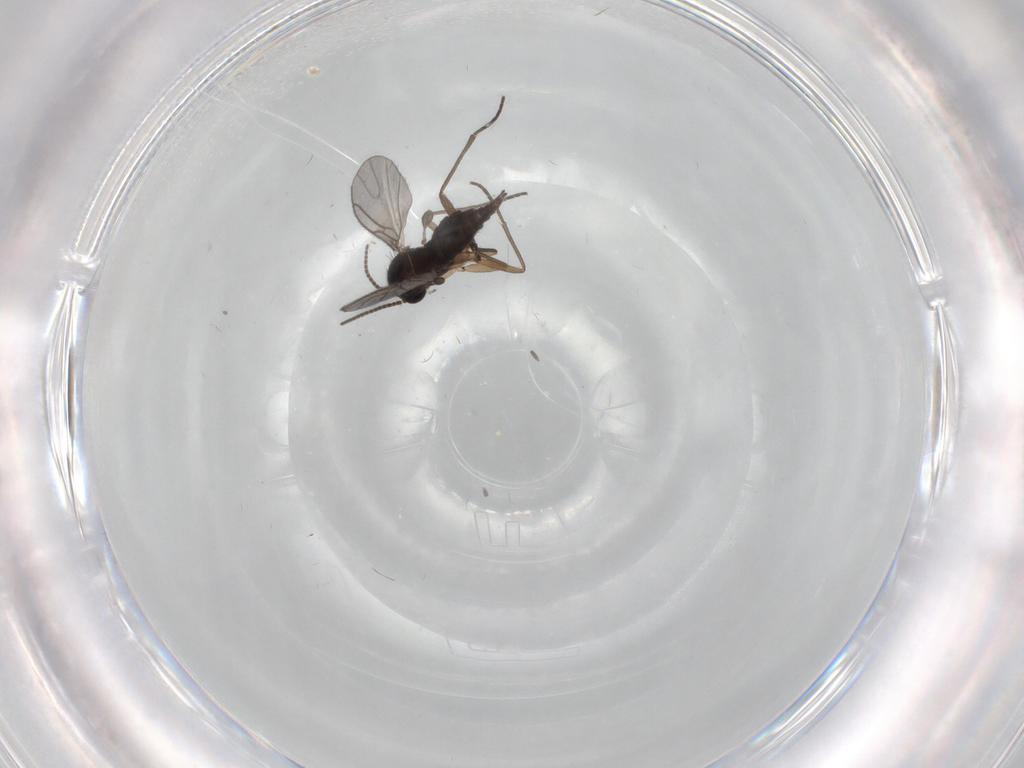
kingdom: Animalia
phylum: Arthropoda
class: Insecta
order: Diptera
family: Sciaridae
